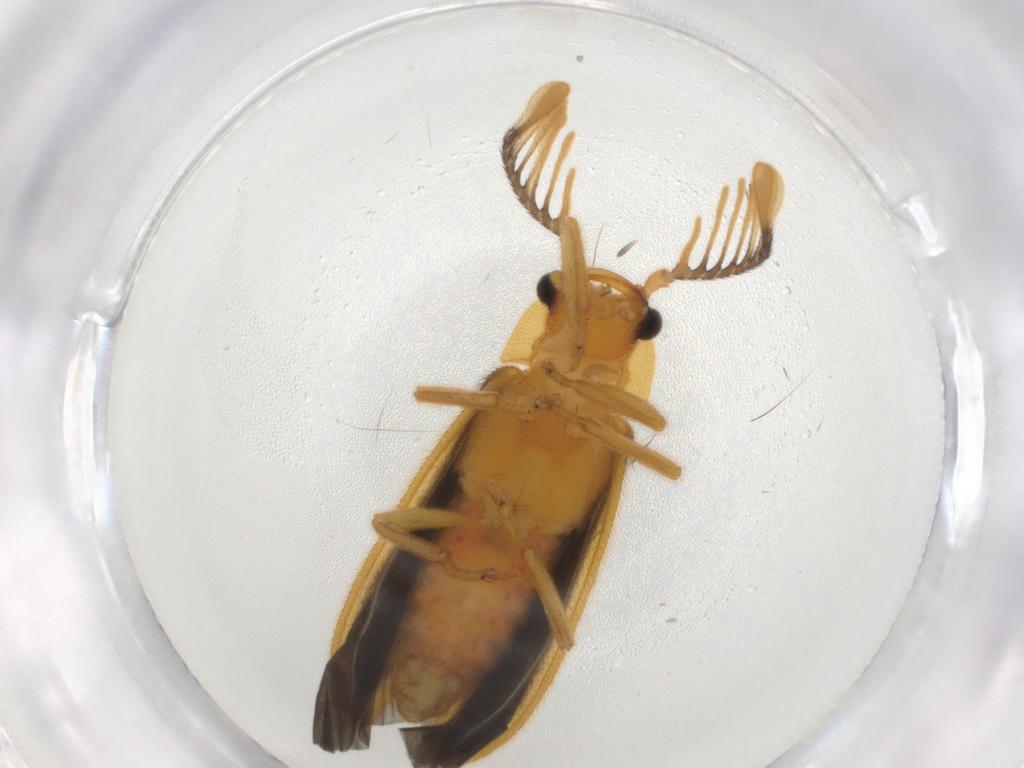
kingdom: Animalia
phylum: Arthropoda
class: Insecta
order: Coleoptera
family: Lampyridae
